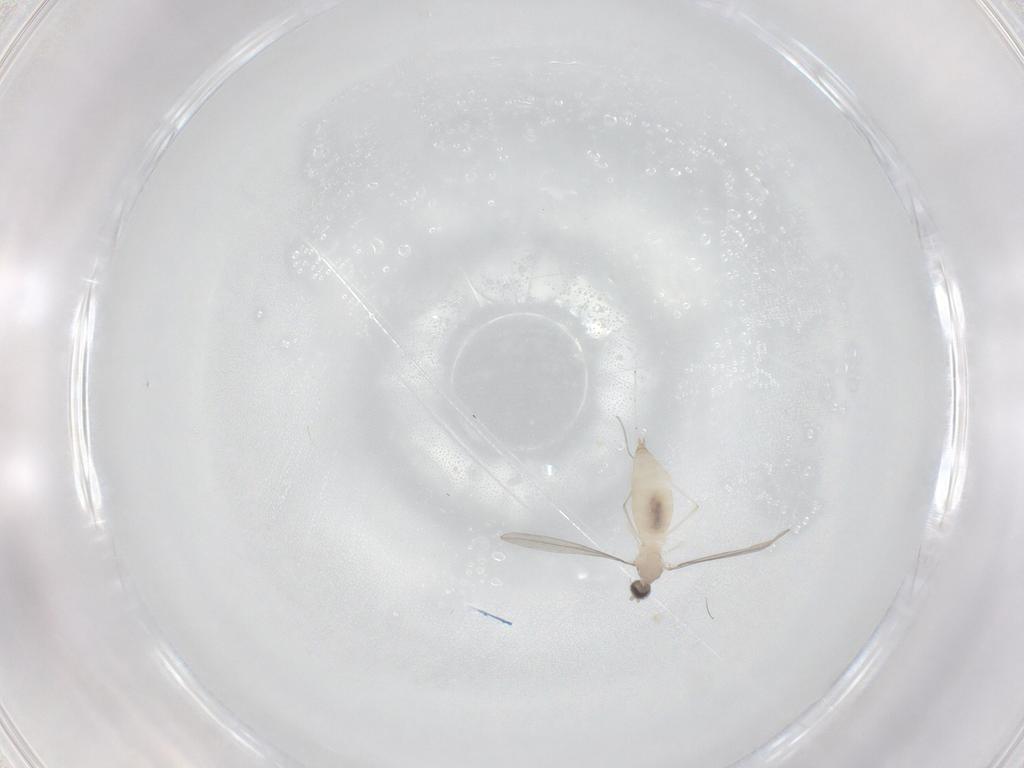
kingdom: Animalia
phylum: Arthropoda
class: Insecta
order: Diptera
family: Cecidomyiidae
